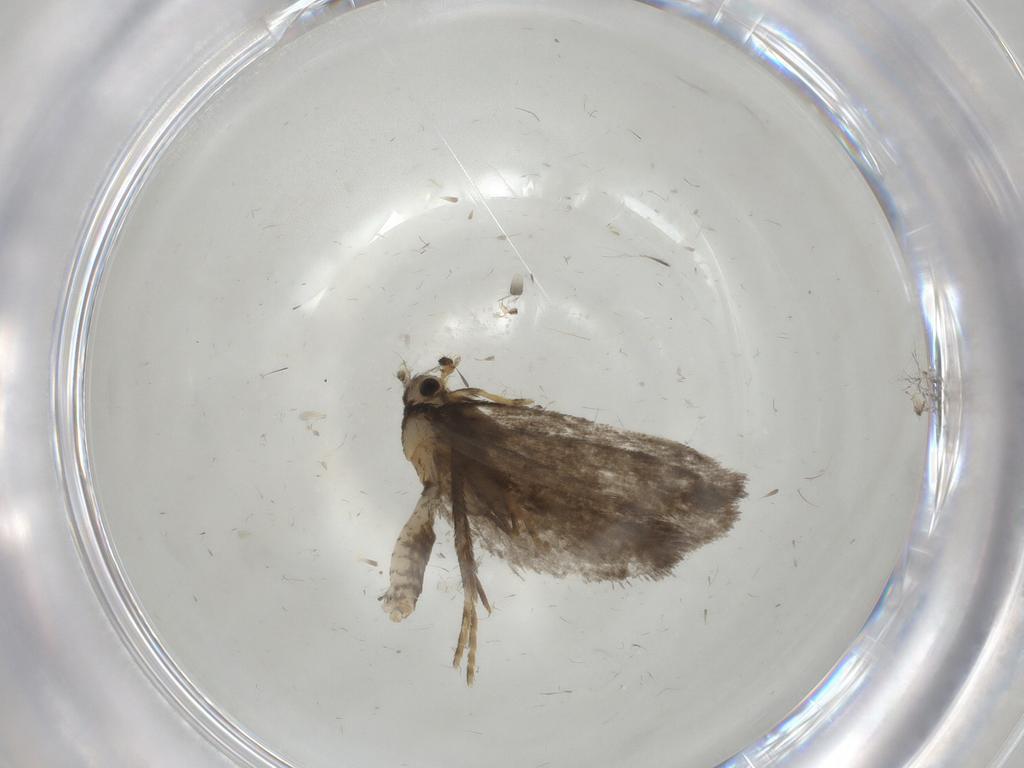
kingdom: Animalia
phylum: Arthropoda
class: Insecta
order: Lepidoptera
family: Psychidae
